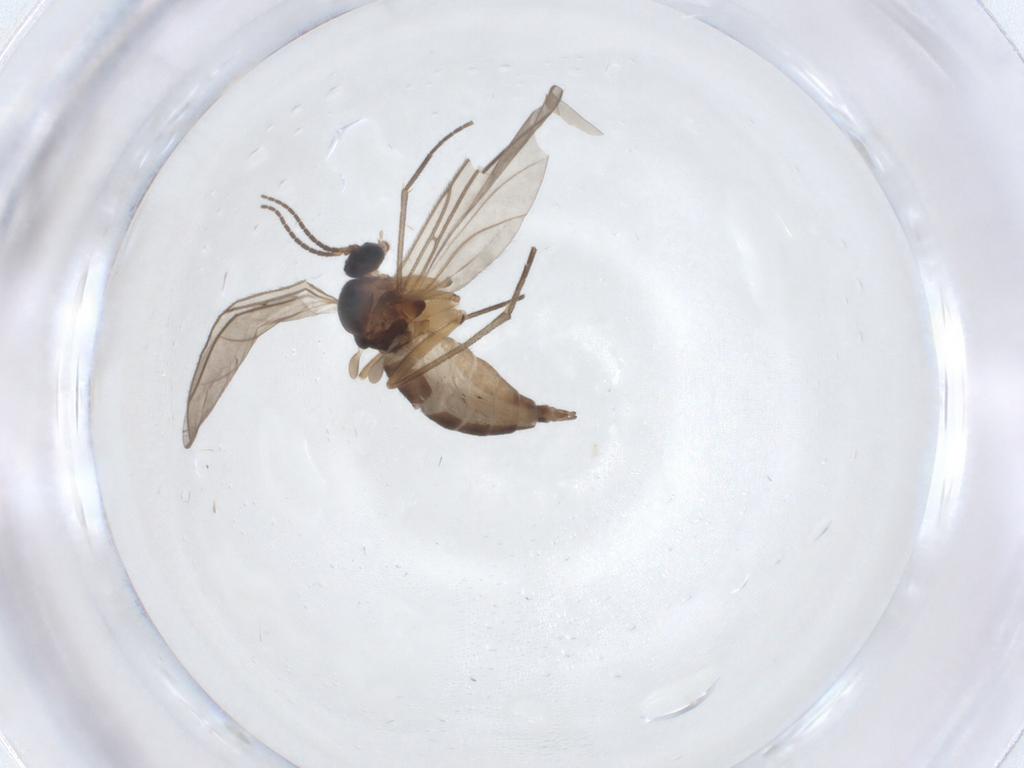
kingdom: Animalia
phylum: Arthropoda
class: Insecta
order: Diptera
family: Sciaridae
